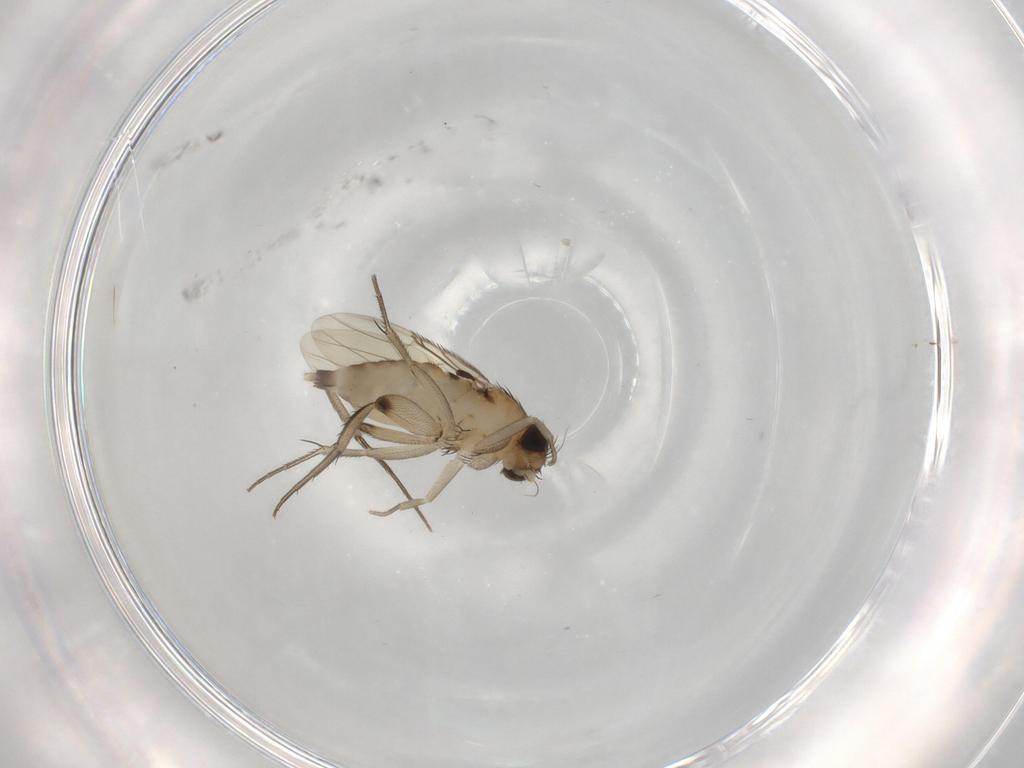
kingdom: Animalia
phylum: Arthropoda
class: Insecta
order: Diptera
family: Phoridae
